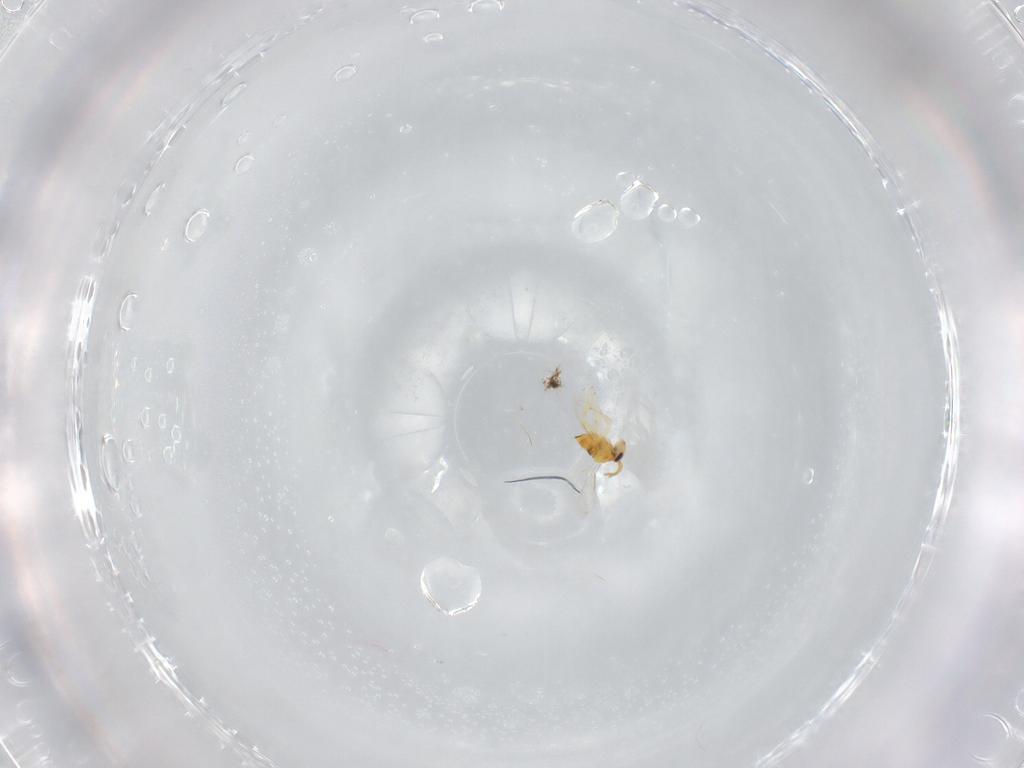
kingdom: Animalia
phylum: Arthropoda
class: Insecta
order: Hymenoptera
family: Aphelinidae
